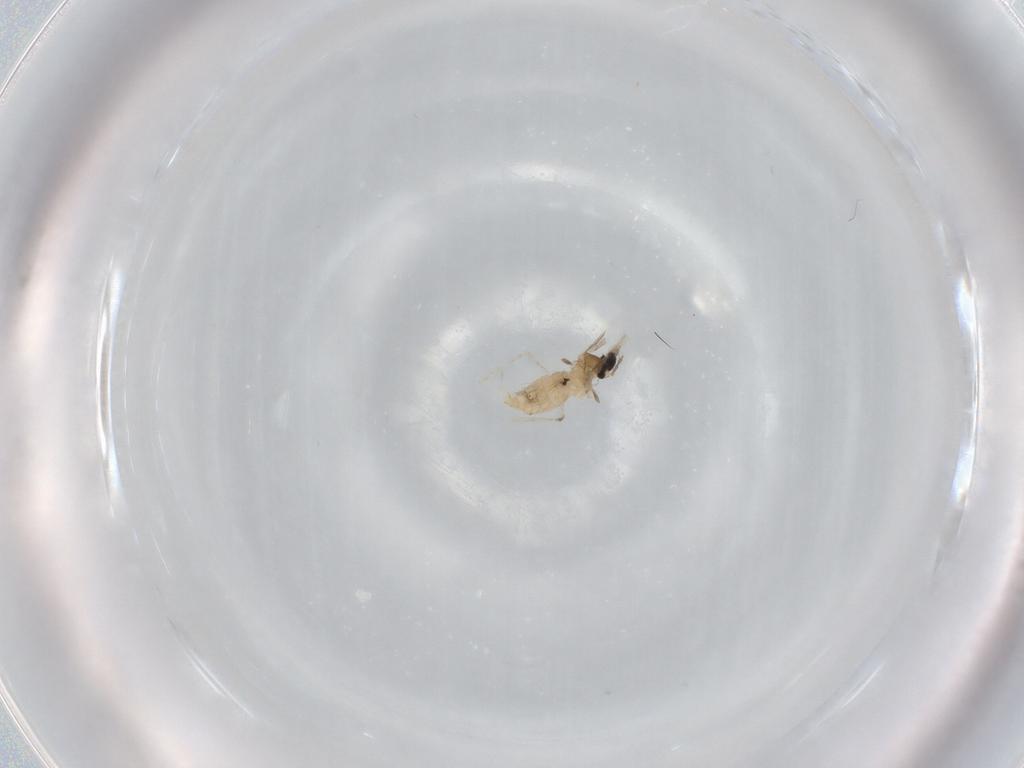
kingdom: Animalia
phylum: Arthropoda
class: Insecta
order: Diptera
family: Cecidomyiidae
